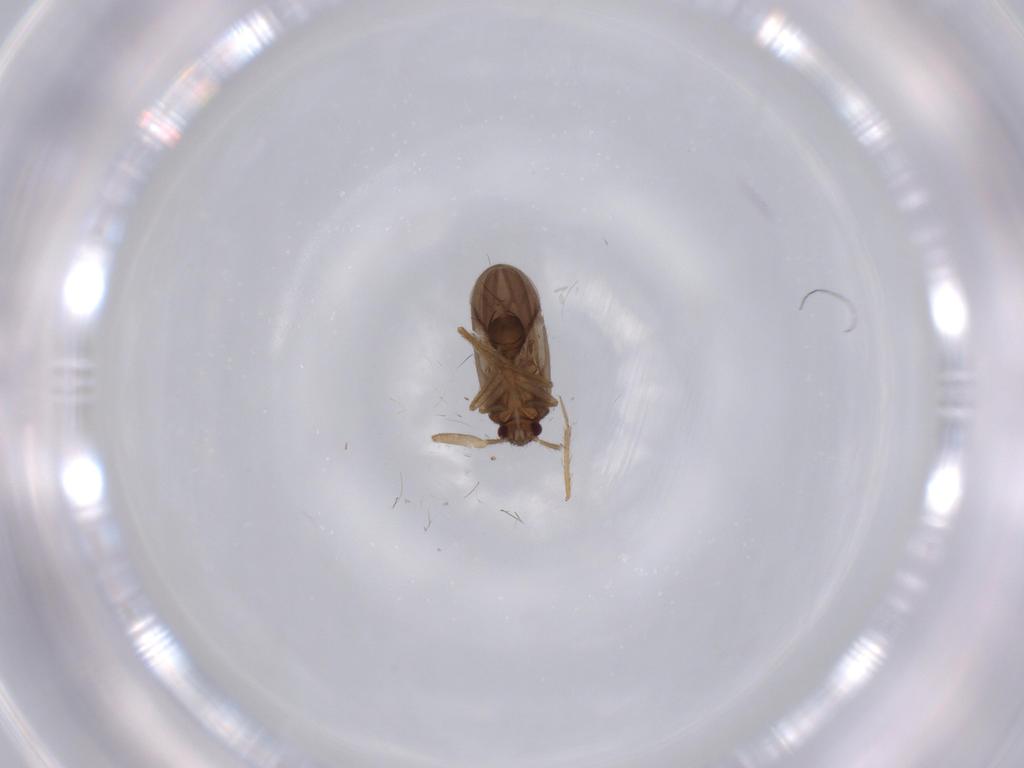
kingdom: Animalia
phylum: Arthropoda
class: Insecta
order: Hemiptera
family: Ceratocombidae
